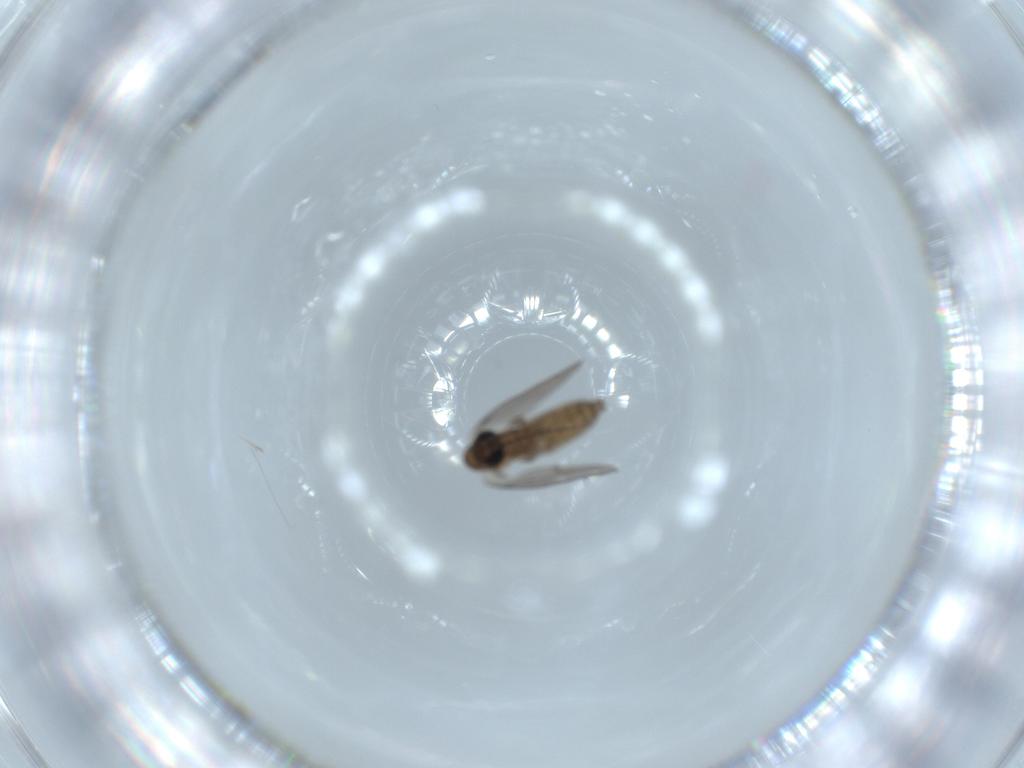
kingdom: Animalia
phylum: Arthropoda
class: Insecta
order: Diptera
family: Psychodidae
